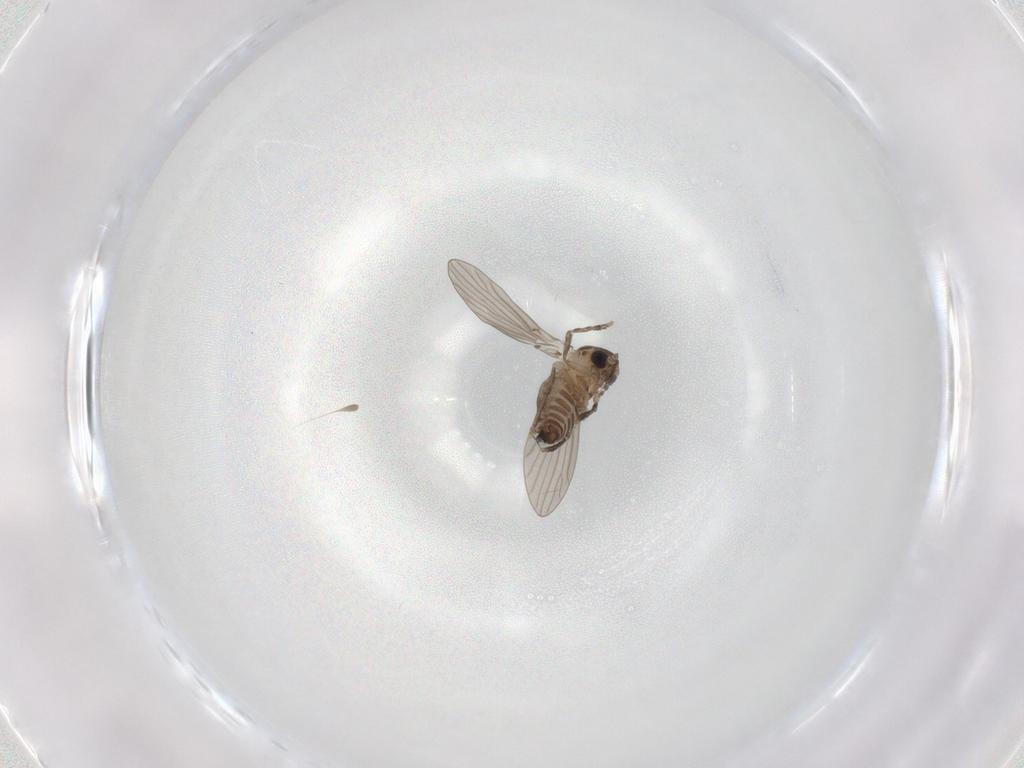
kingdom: Animalia
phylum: Arthropoda
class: Insecta
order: Diptera
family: Psychodidae
